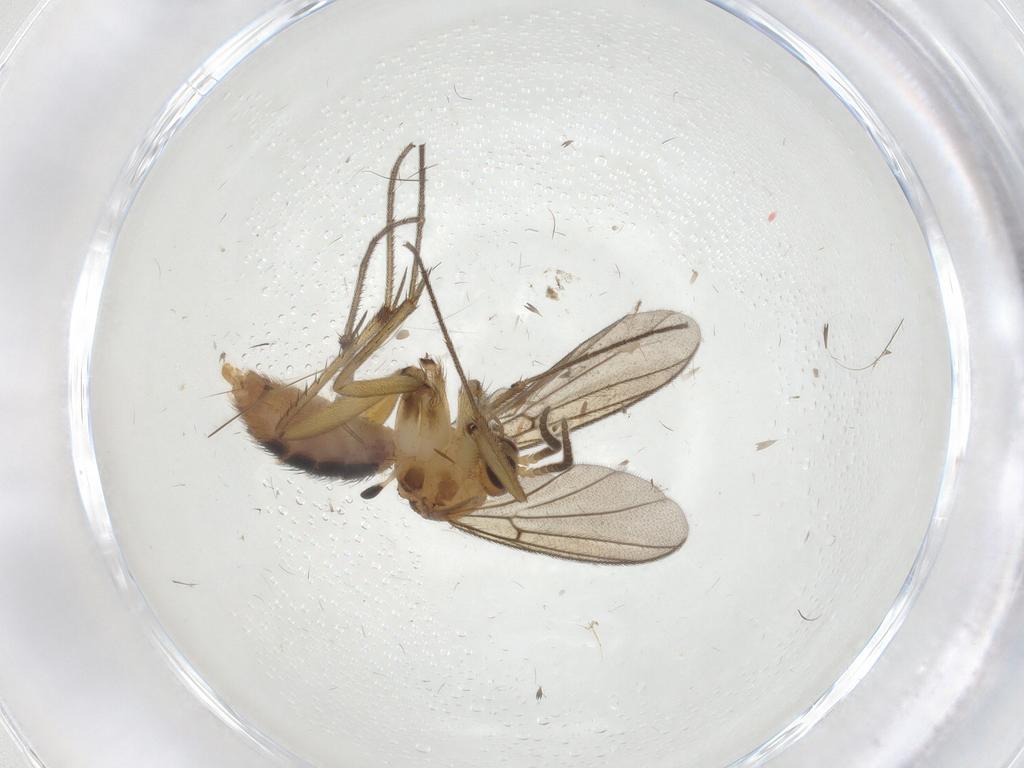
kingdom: Animalia
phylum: Arthropoda
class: Insecta
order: Diptera
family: Mycetophilidae
